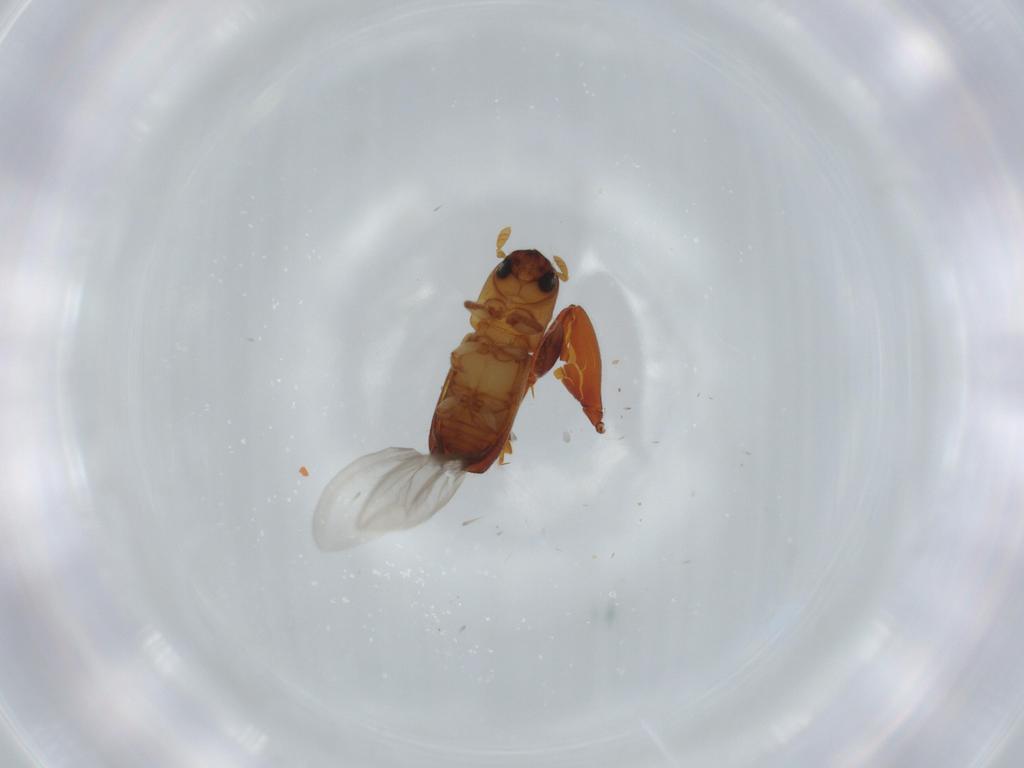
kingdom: Animalia
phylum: Arthropoda
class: Insecta
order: Coleoptera
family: Eucnemidae
